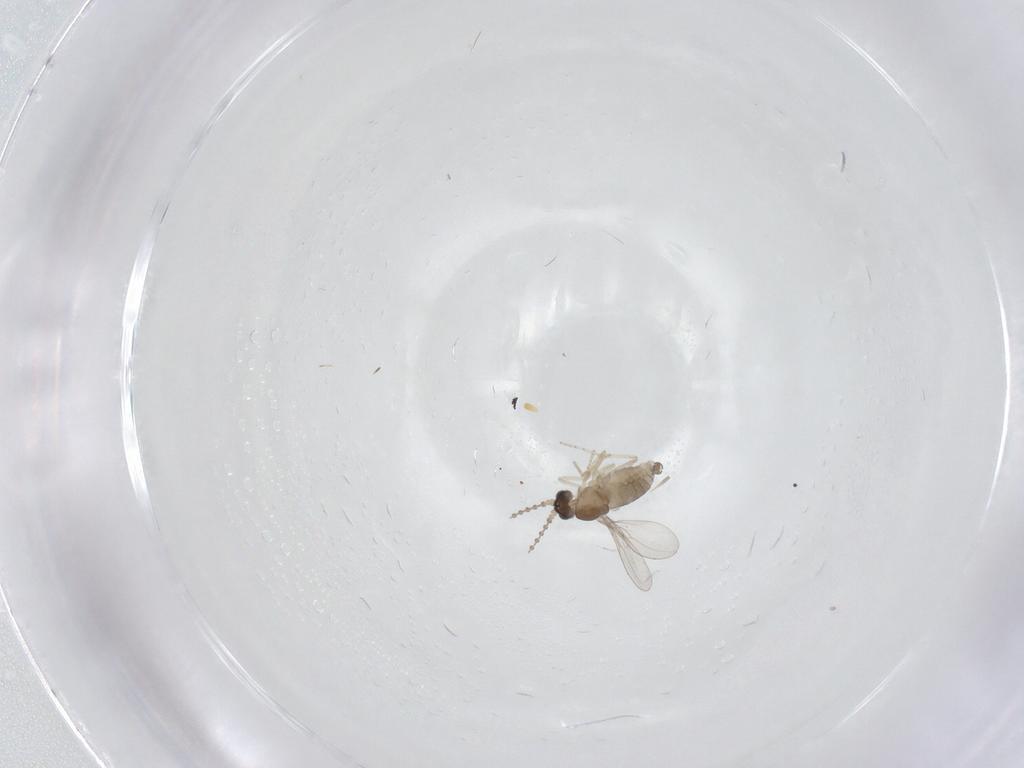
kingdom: Animalia
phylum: Arthropoda
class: Insecta
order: Diptera
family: Cecidomyiidae
